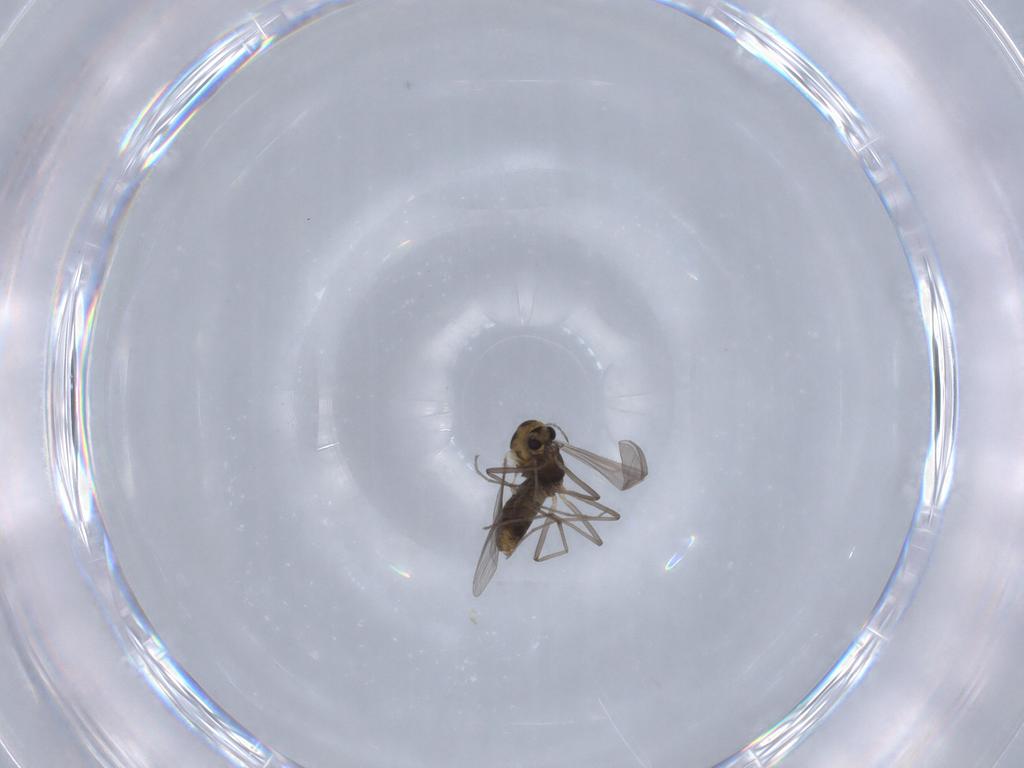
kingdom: Animalia
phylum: Arthropoda
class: Insecta
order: Diptera
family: Chironomidae
